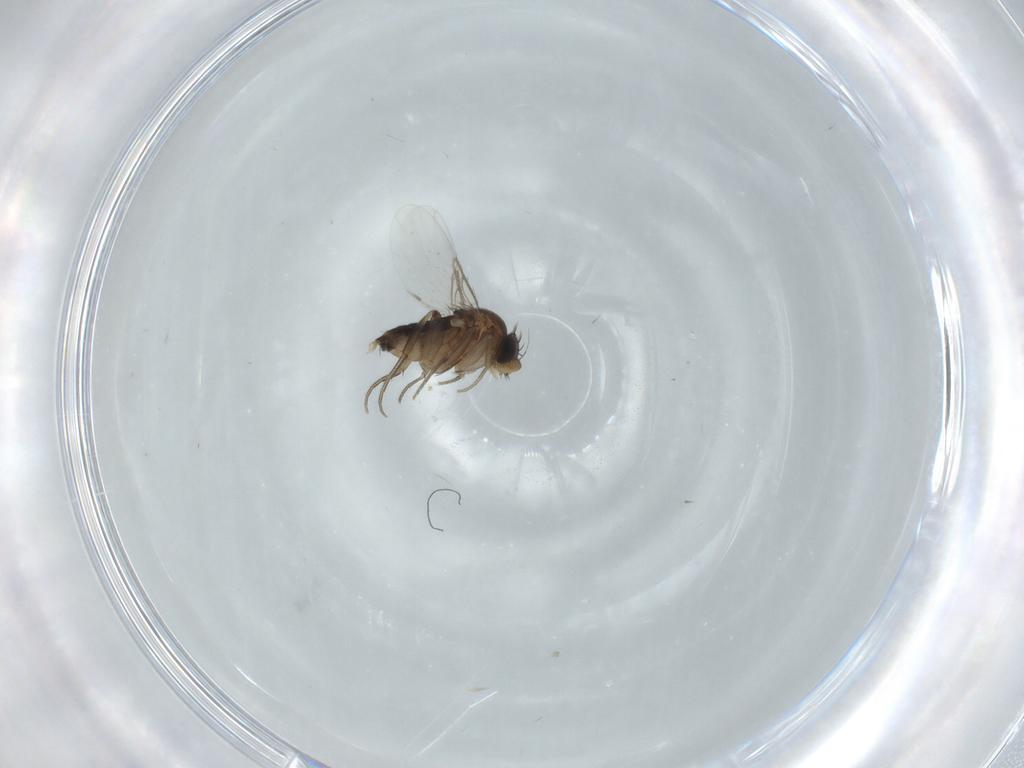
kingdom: Animalia
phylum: Arthropoda
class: Insecta
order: Diptera
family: Phoridae
